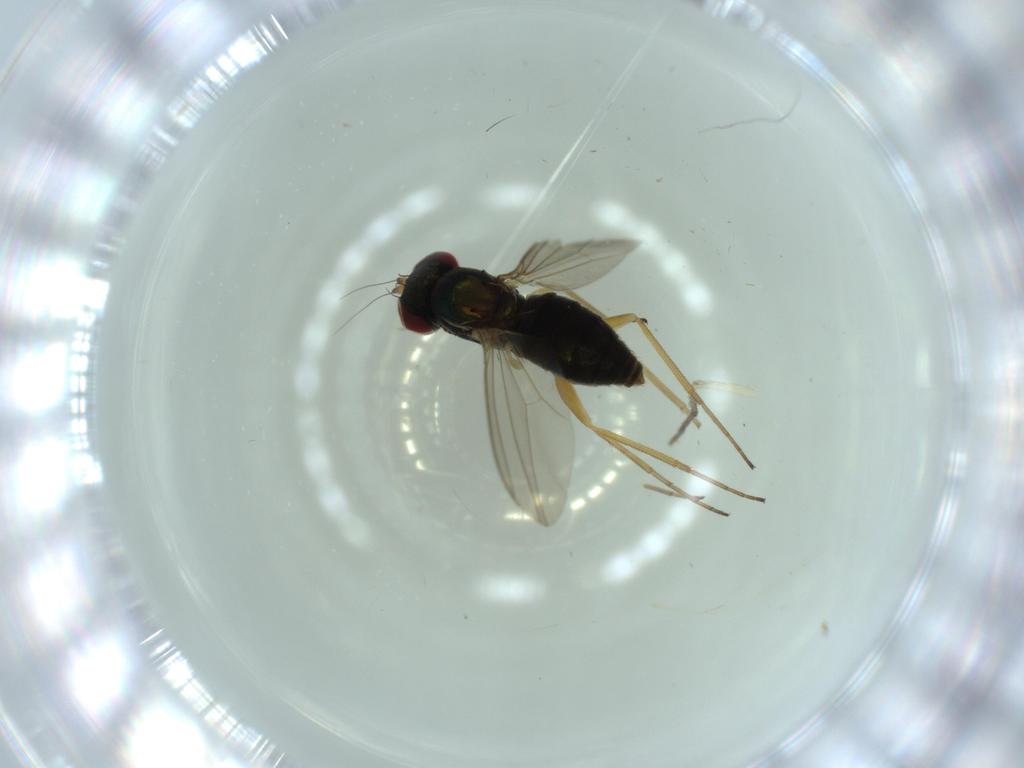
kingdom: Animalia
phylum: Arthropoda
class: Insecta
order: Diptera
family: Dolichopodidae
